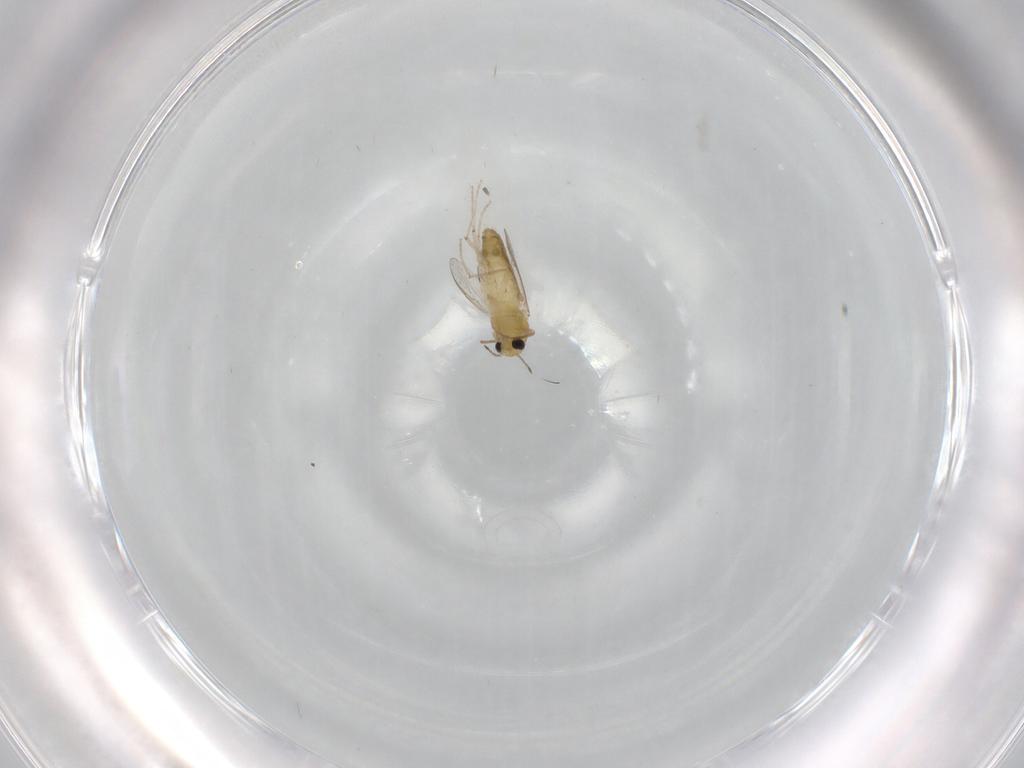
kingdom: Animalia
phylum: Arthropoda
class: Insecta
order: Diptera
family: Chironomidae
